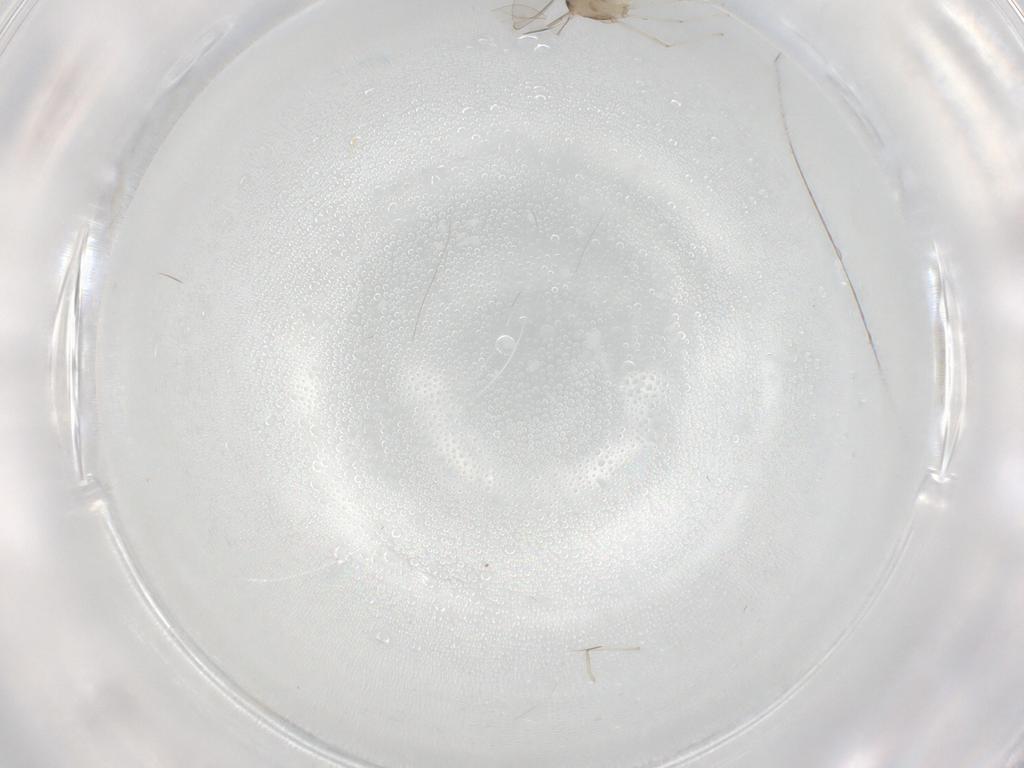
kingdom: Animalia
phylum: Arthropoda
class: Insecta
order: Diptera
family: Cecidomyiidae
